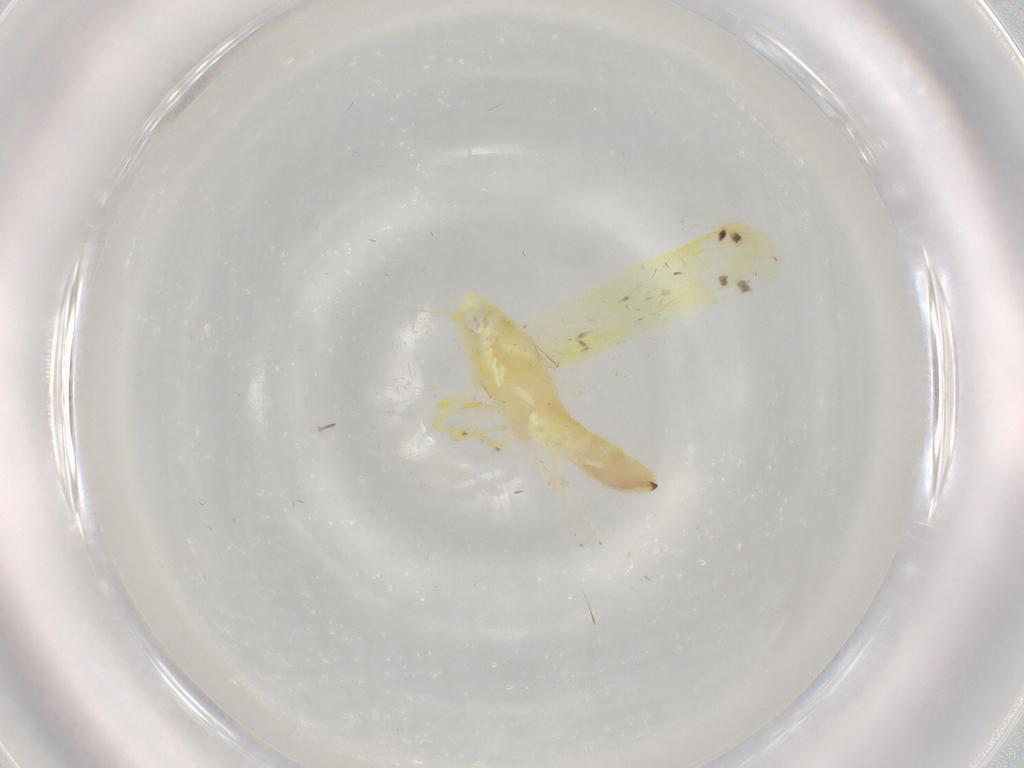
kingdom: Animalia
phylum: Arthropoda
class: Insecta
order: Hemiptera
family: Cicadellidae
